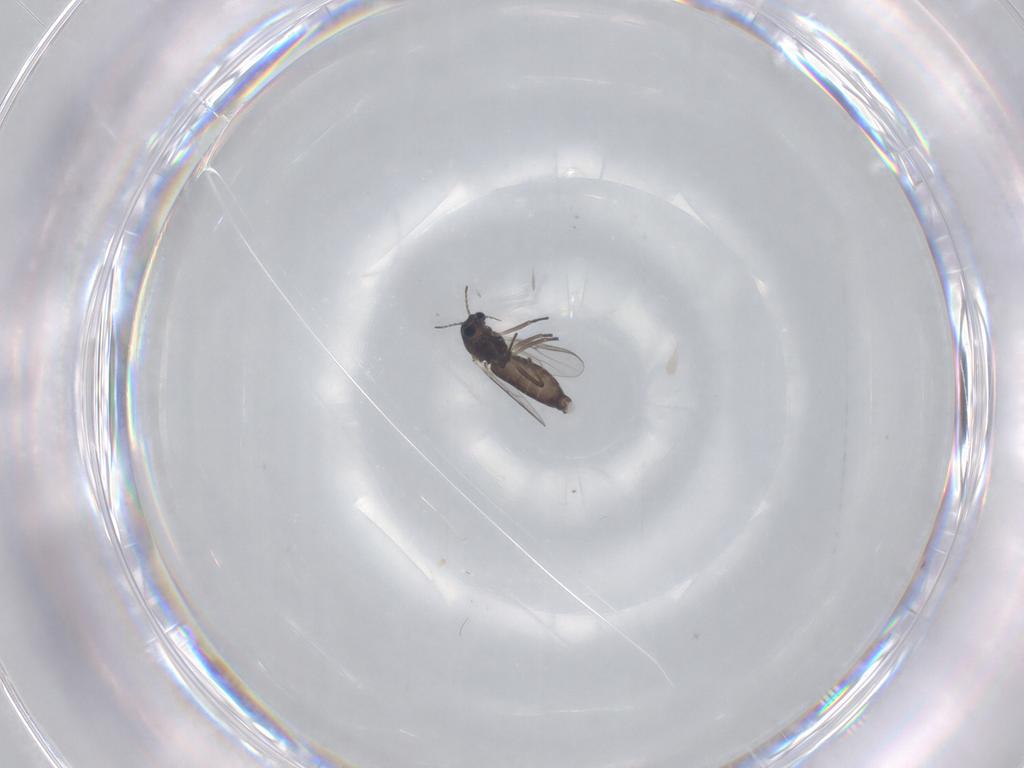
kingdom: Animalia
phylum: Arthropoda
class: Insecta
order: Diptera
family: Chironomidae
